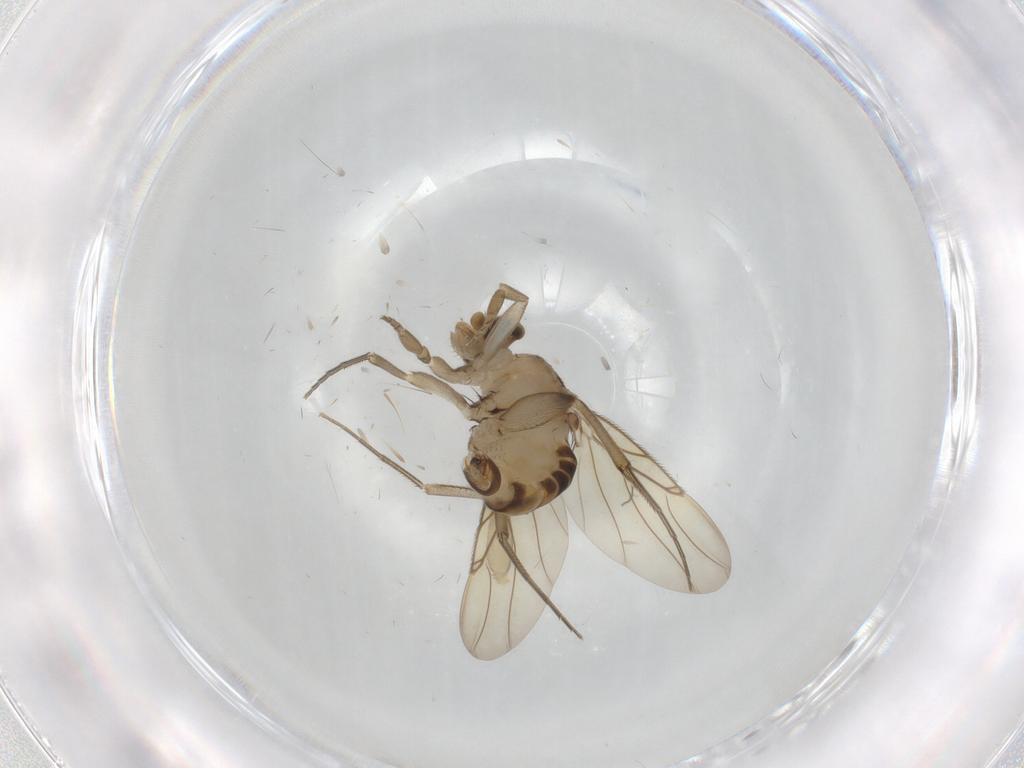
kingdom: Animalia
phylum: Arthropoda
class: Insecta
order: Diptera
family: Phoridae
